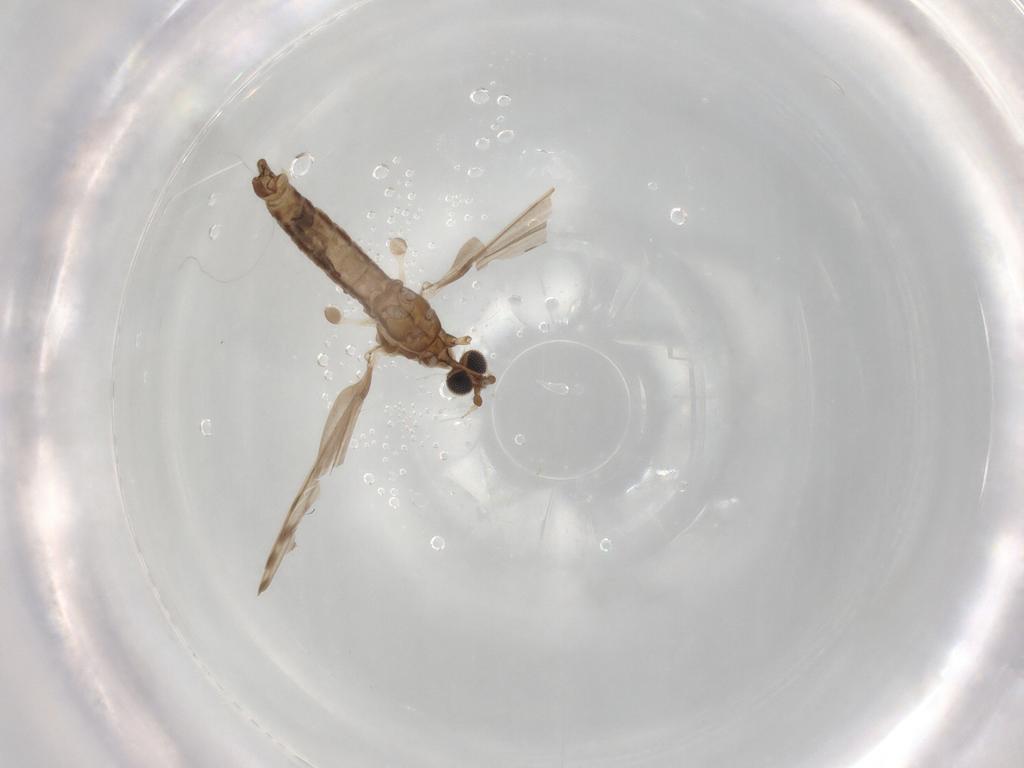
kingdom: Animalia
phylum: Arthropoda
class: Insecta
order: Diptera
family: Ceratopogonidae
